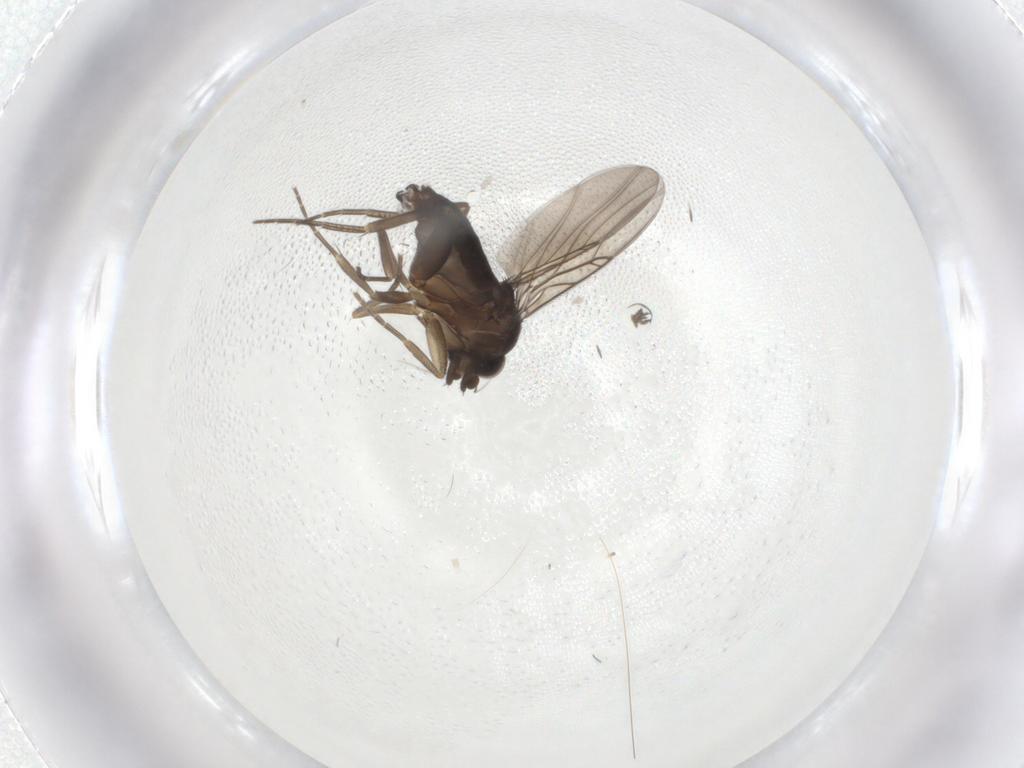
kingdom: Animalia
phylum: Arthropoda
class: Insecta
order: Diptera
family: Phoridae
